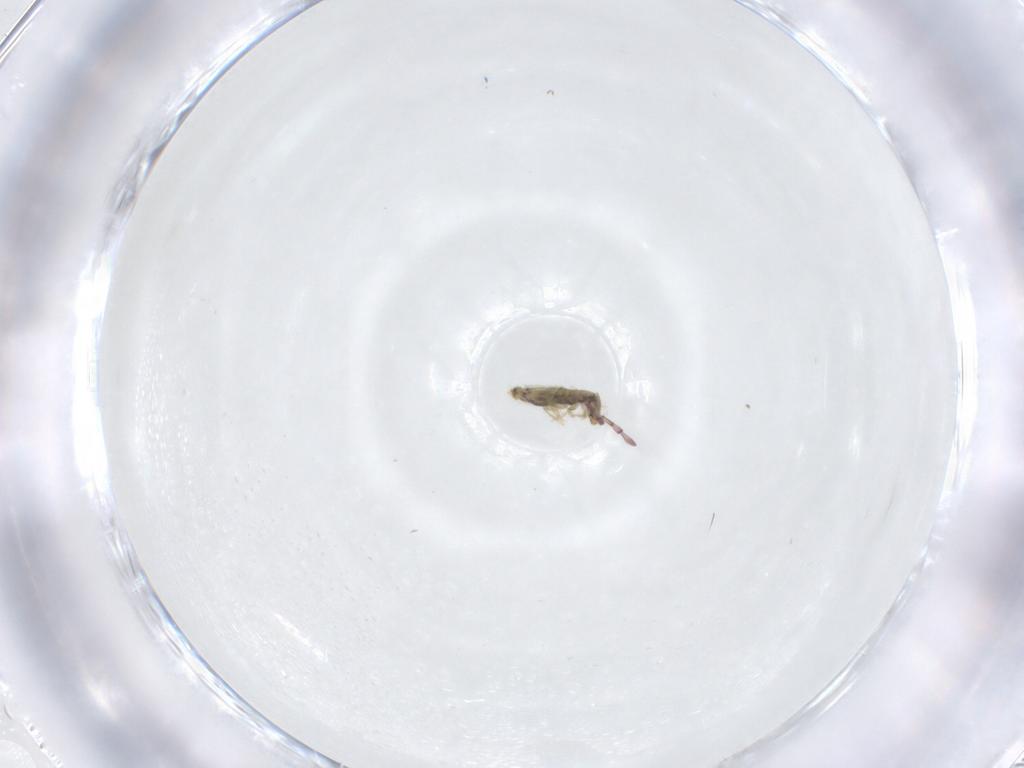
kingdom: Animalia
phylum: Arthropoda
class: Collembola
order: Entomobryomorpha
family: Entomobryidae
